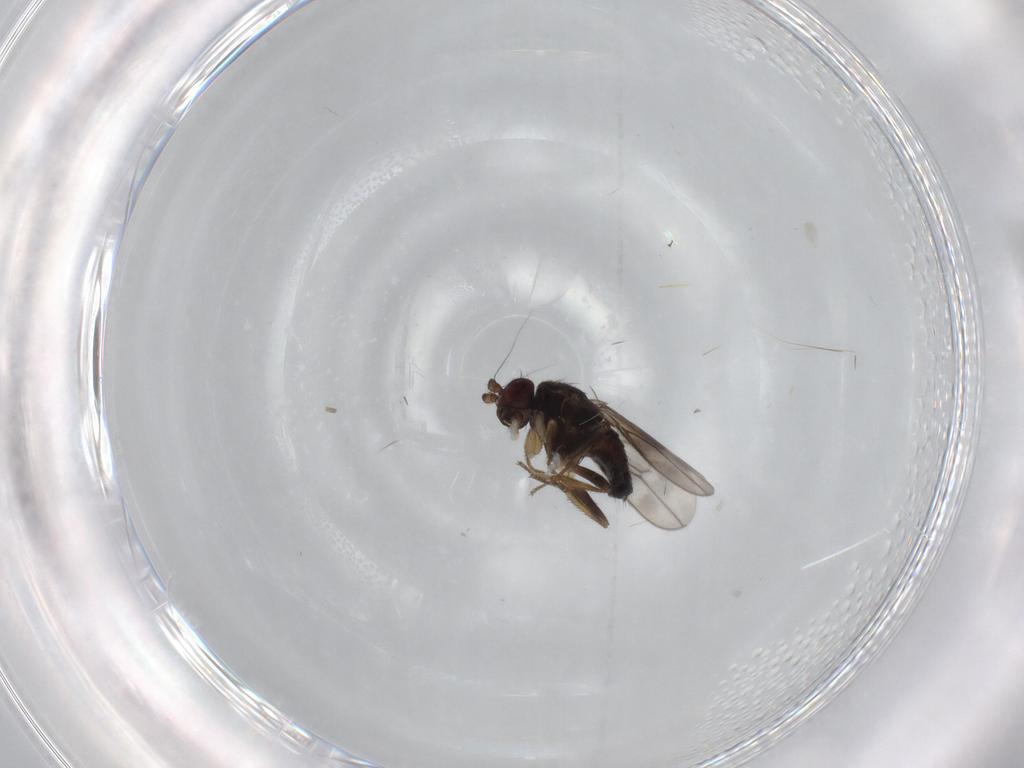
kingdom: Animalia
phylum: Arthropoda
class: Insecta
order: Diptera
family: Sphaeroceridae
